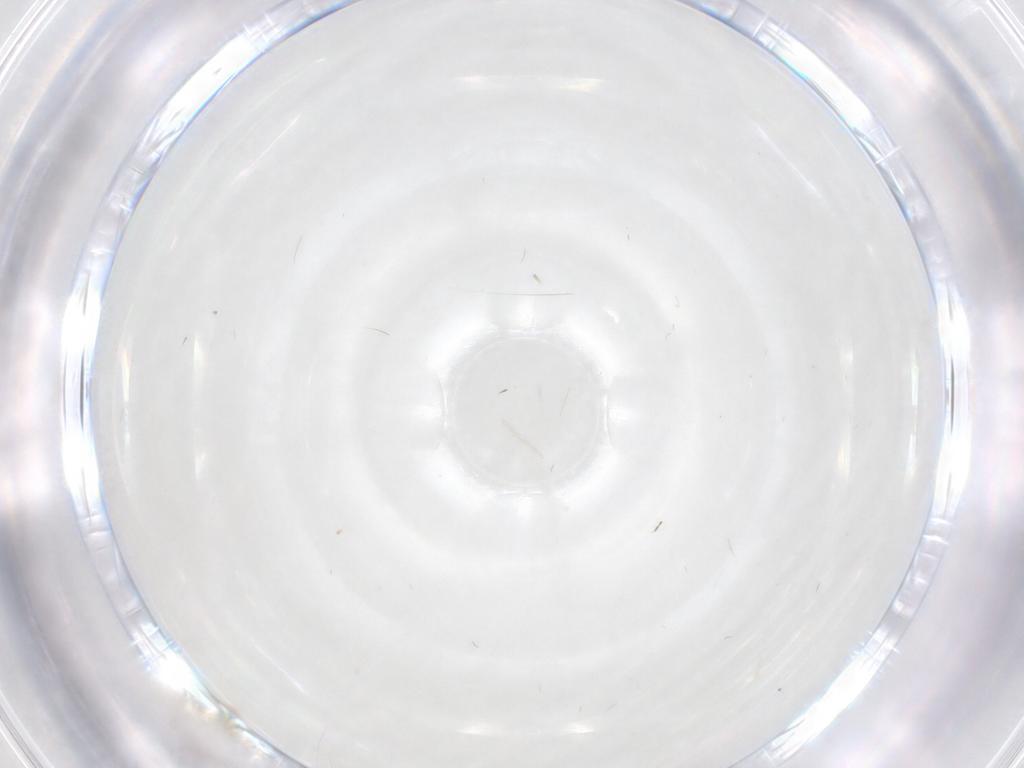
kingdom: Animalia
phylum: Arthropoda
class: Insecta
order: Diptera
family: Cecidomyiidae
